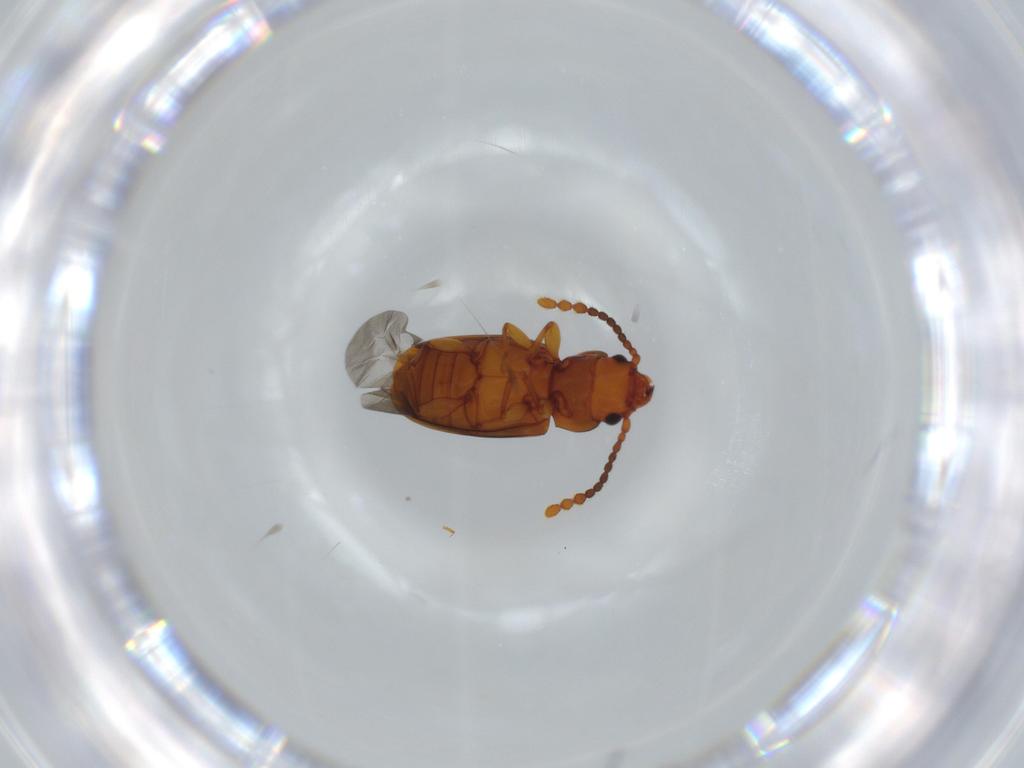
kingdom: Animalia
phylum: Arthropoda
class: Insecta
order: Coleoptera
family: Laemophloeidae
